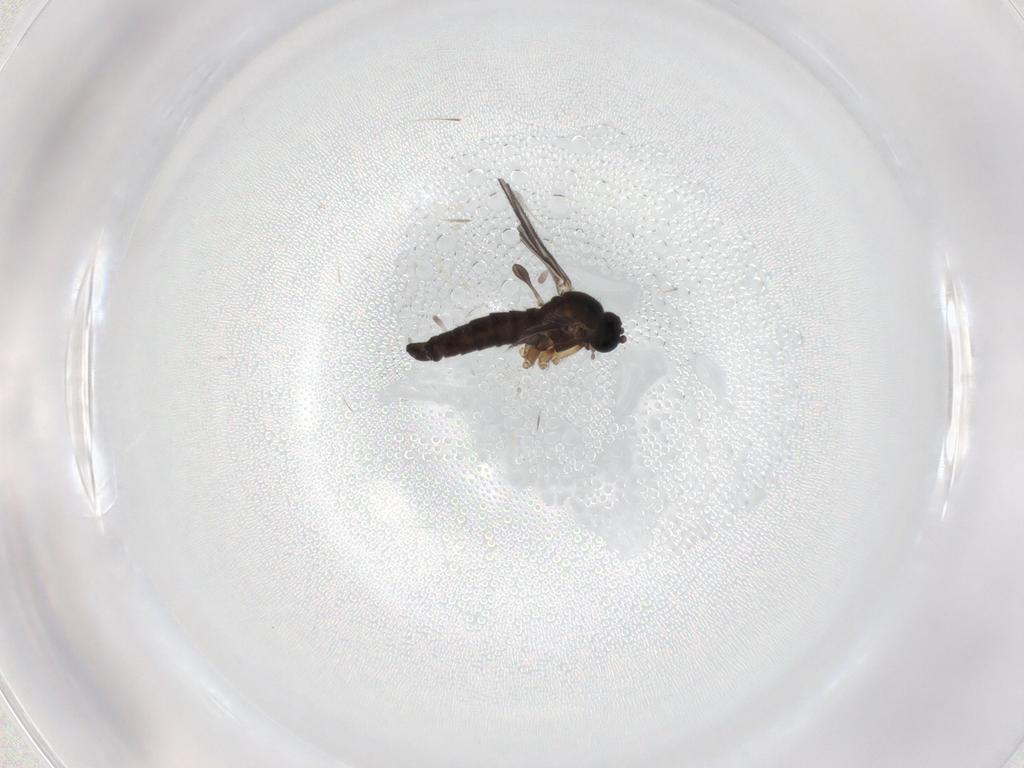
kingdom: Animalia
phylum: Arthropoda
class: Insecta
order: Diptera
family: Sciaridae
